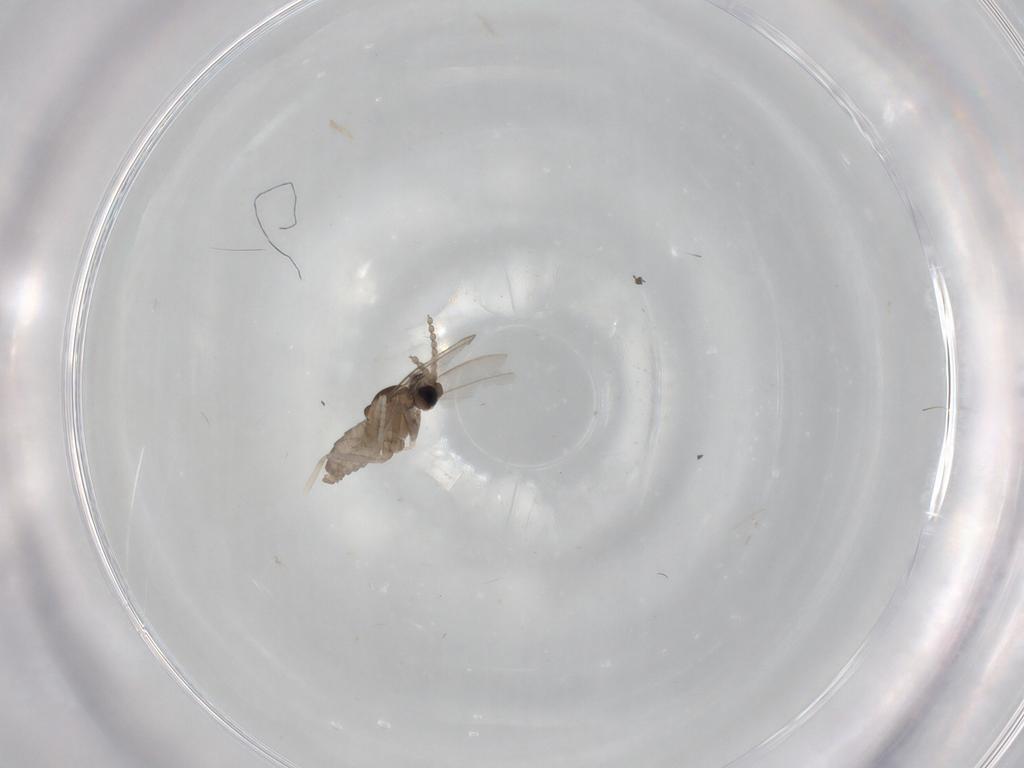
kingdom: Animalia
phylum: Arthropoda
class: Insecta
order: Diptera
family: Cecidomyiidae
